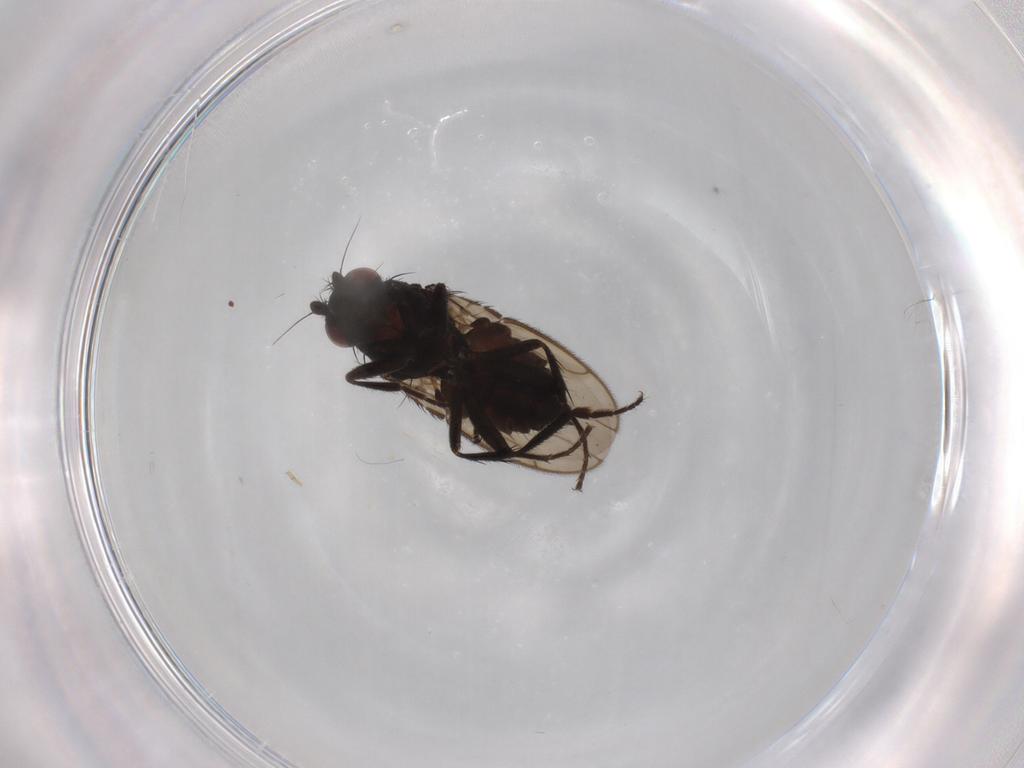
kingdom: Animalia
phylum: Arthropoda
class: Insecta
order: Diptera
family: Sphaeroceridae
